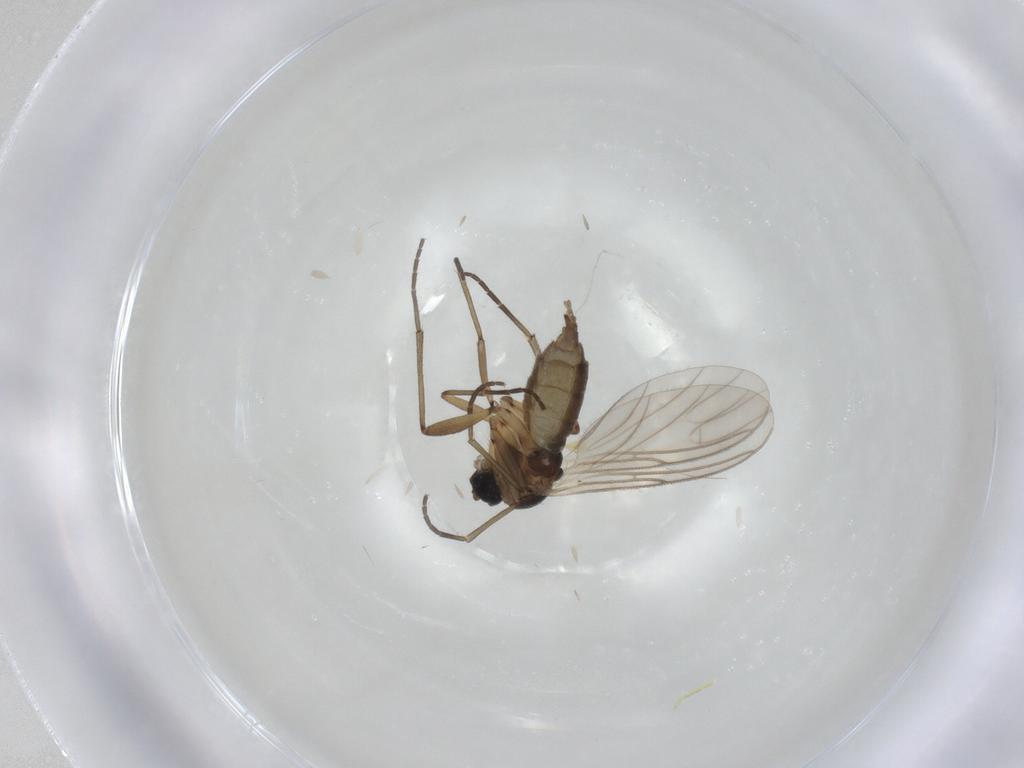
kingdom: Animalia
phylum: Arthropoda
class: Insecta
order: Diptera
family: Psychodidae
